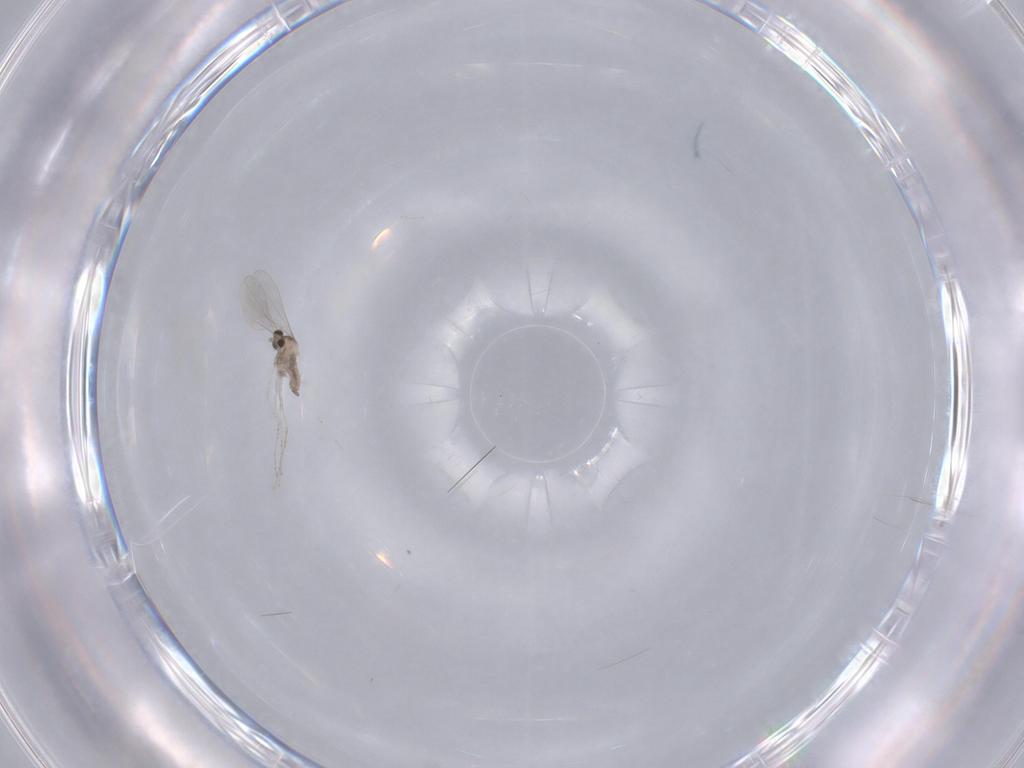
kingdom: Animalia
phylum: Arthropoda
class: Insecta
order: Diptera
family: Cecidomyiidae
